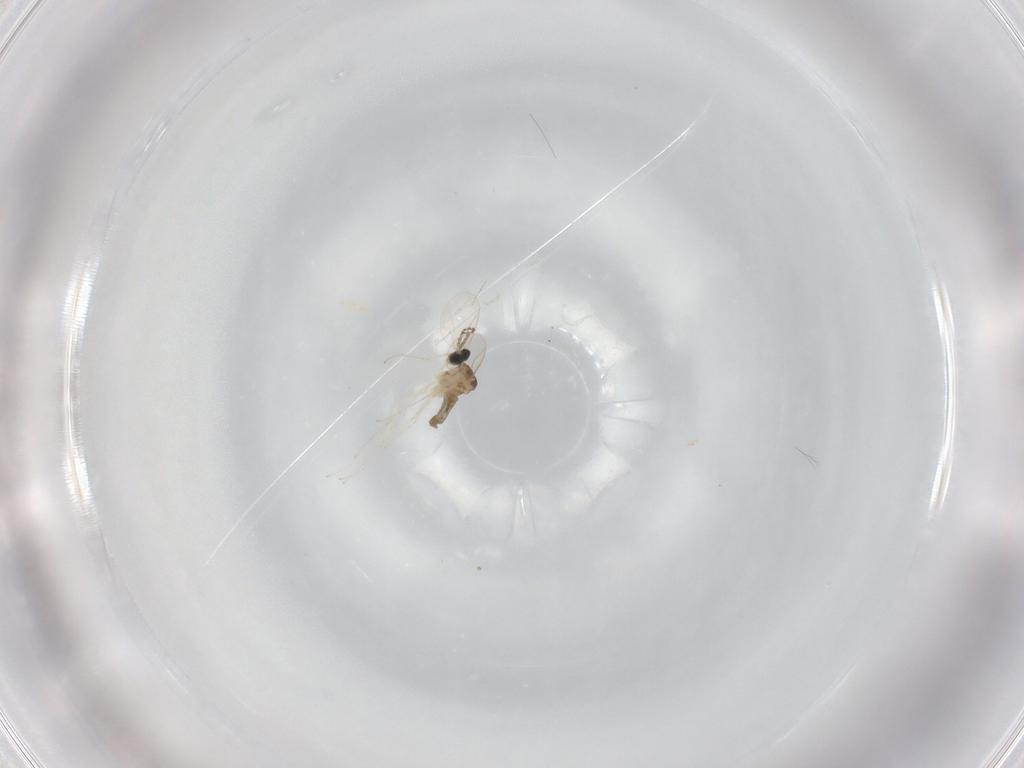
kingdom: Animalia
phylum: Arthropoda
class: Insecta
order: Diptera
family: Cecidomyiidae
